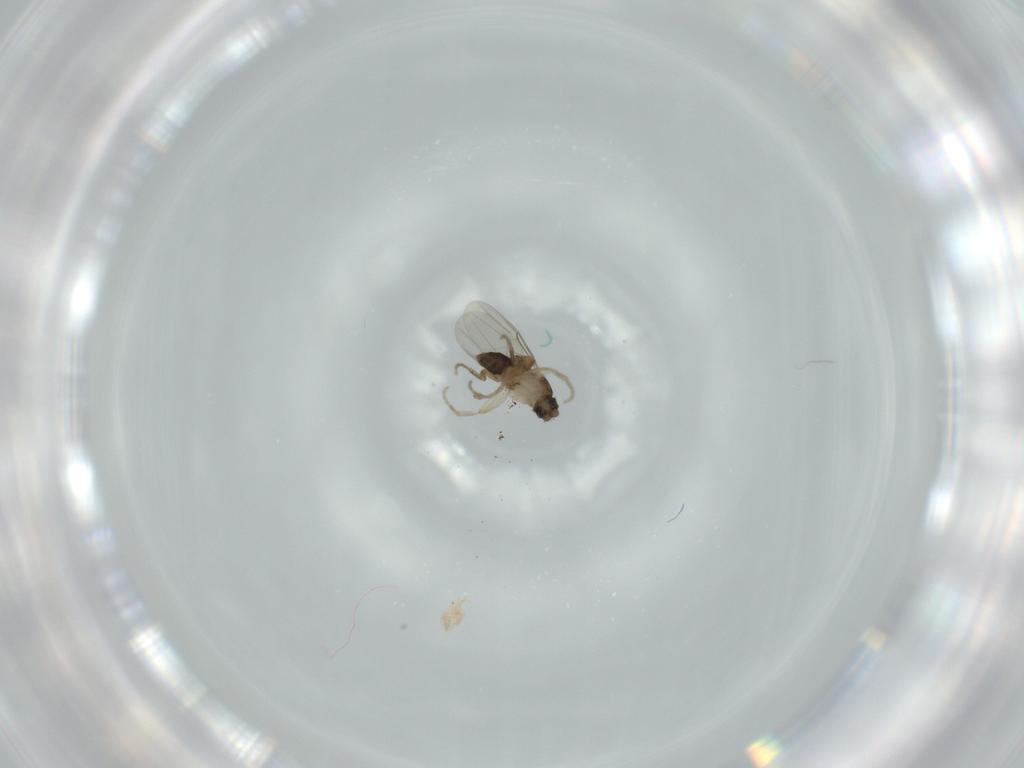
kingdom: Animalia
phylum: Arthropoda
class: Insecta
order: Diptera
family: Phoridae
